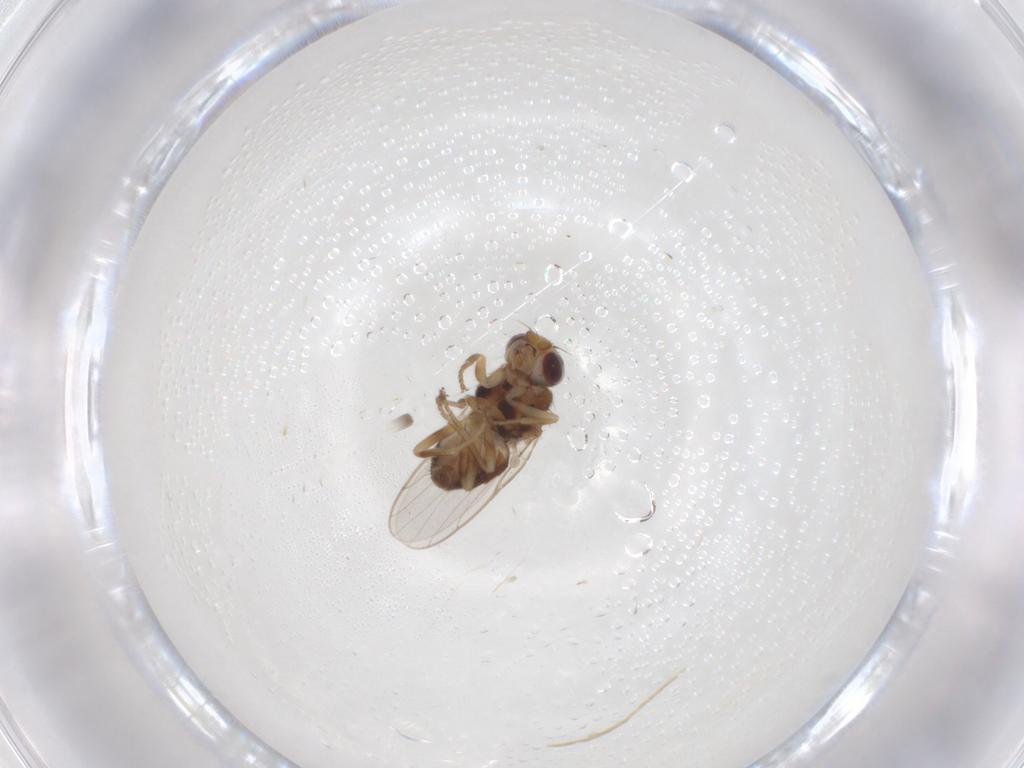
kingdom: Animalia
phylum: Arthropoda
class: Insecta
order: Diptera
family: Chloropidae
